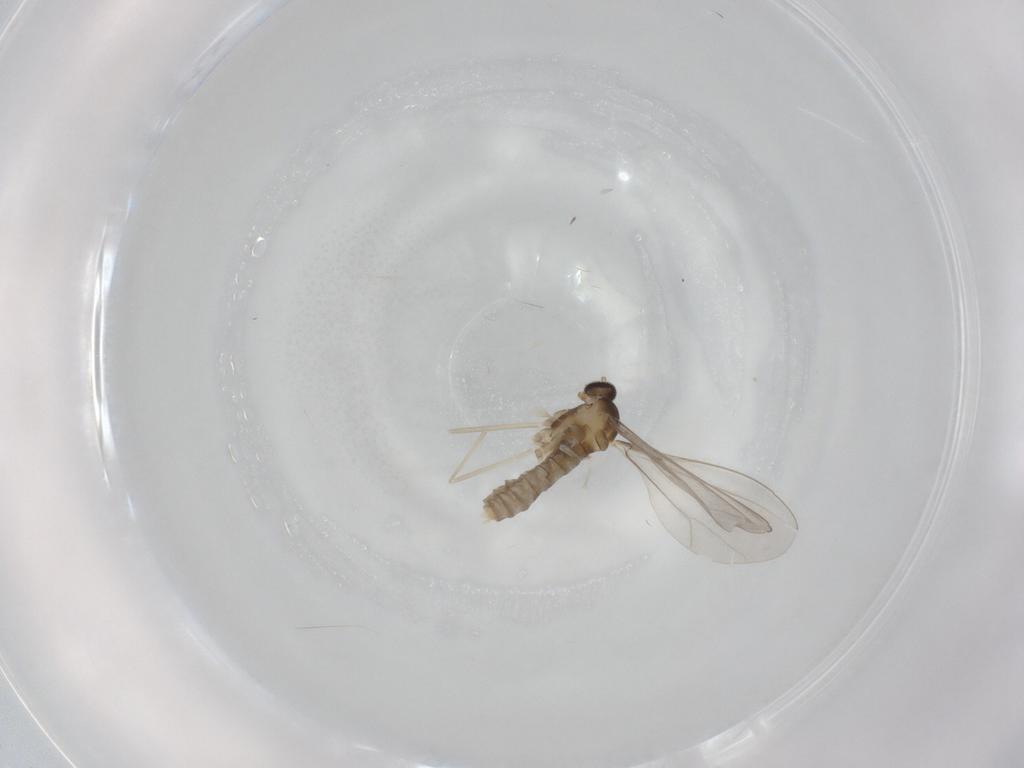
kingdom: Animalia
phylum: Arthropoda
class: Insecta
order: Diptera
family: Cecidomyiidae
